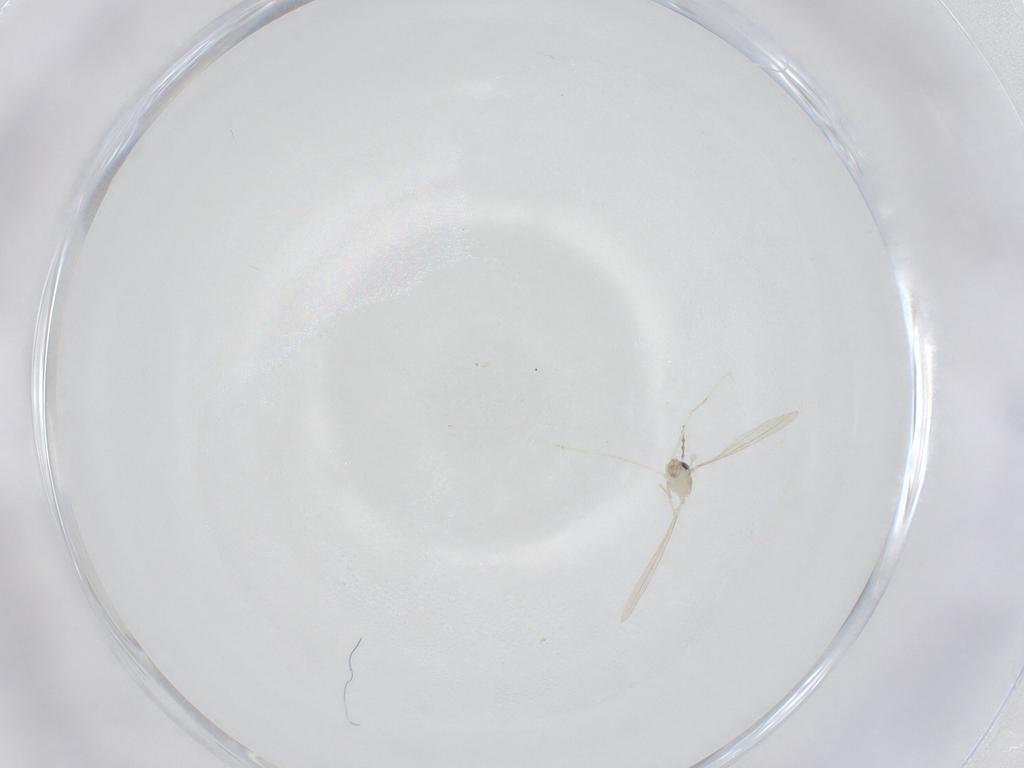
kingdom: Animalia
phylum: Arthropoda
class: Insecta
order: Diptera
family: Cecidomyiidae
